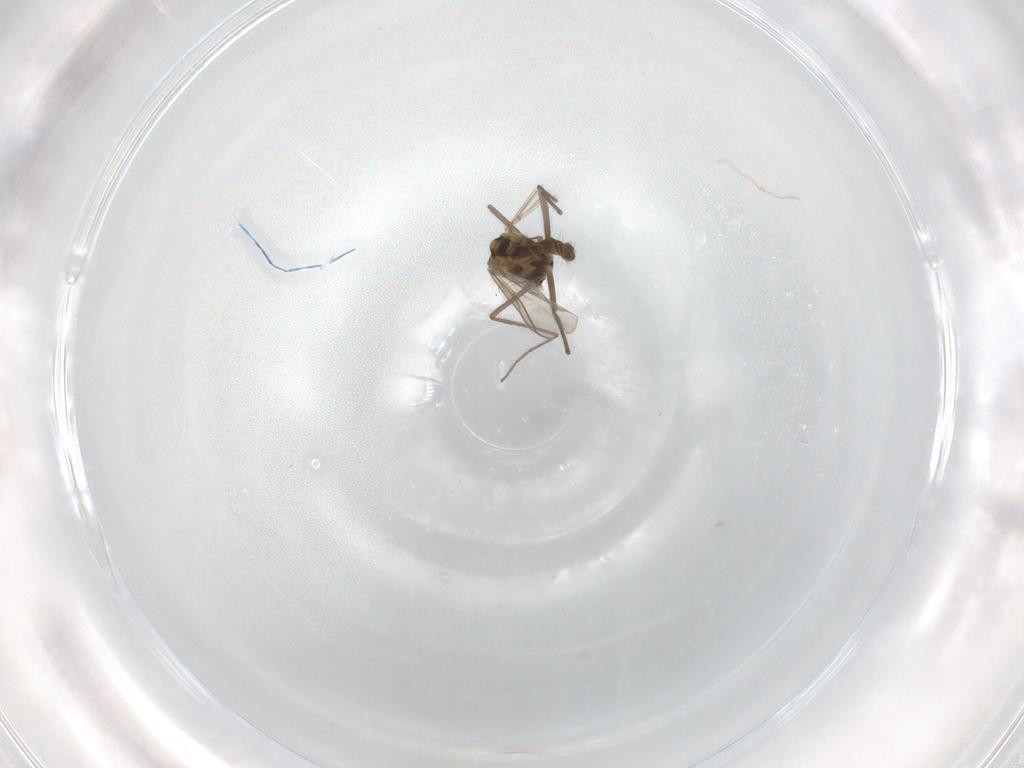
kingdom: Animalia
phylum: Arthropoda
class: Insecta
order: Diptera
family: Chironomidae
